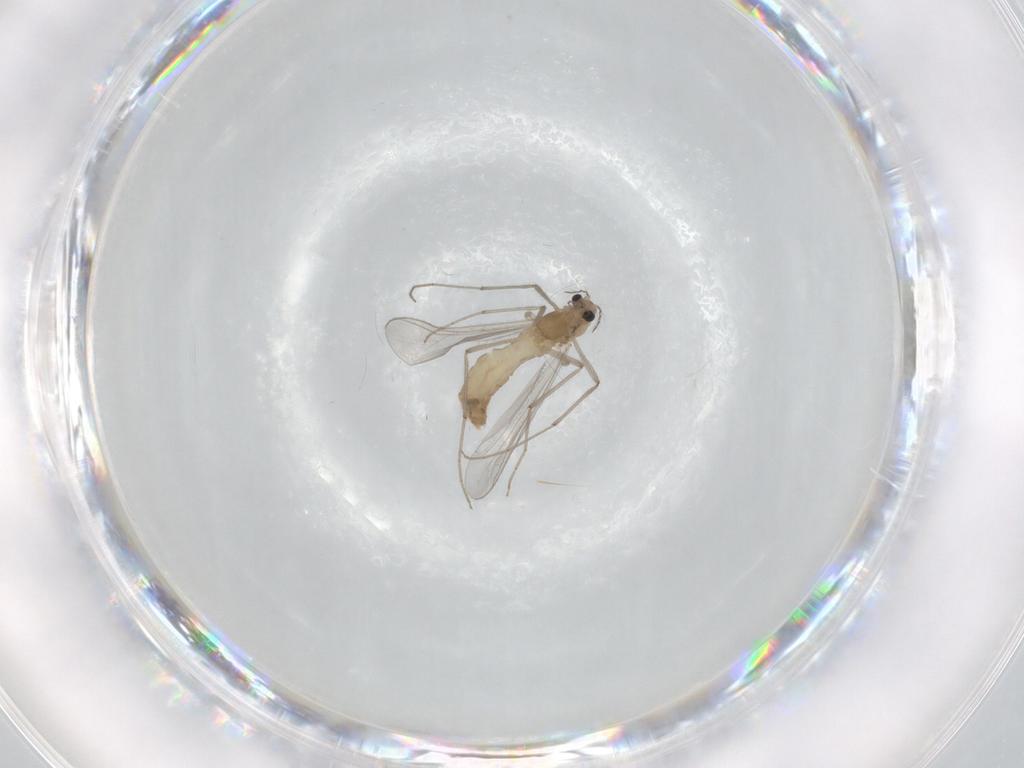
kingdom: Animalia
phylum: Arthropoda
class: Insecta
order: Diptera
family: Chironomidae
